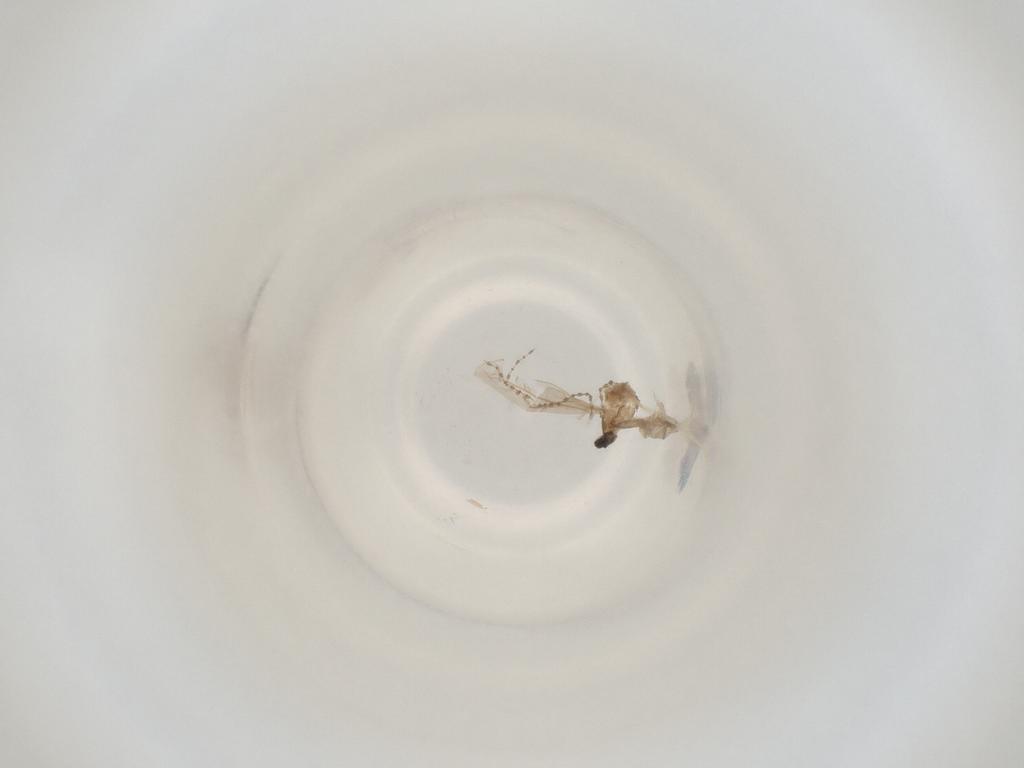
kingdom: Animalia
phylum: Arthropoda
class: Insecta
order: Diptera
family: Cecidomyiidae
